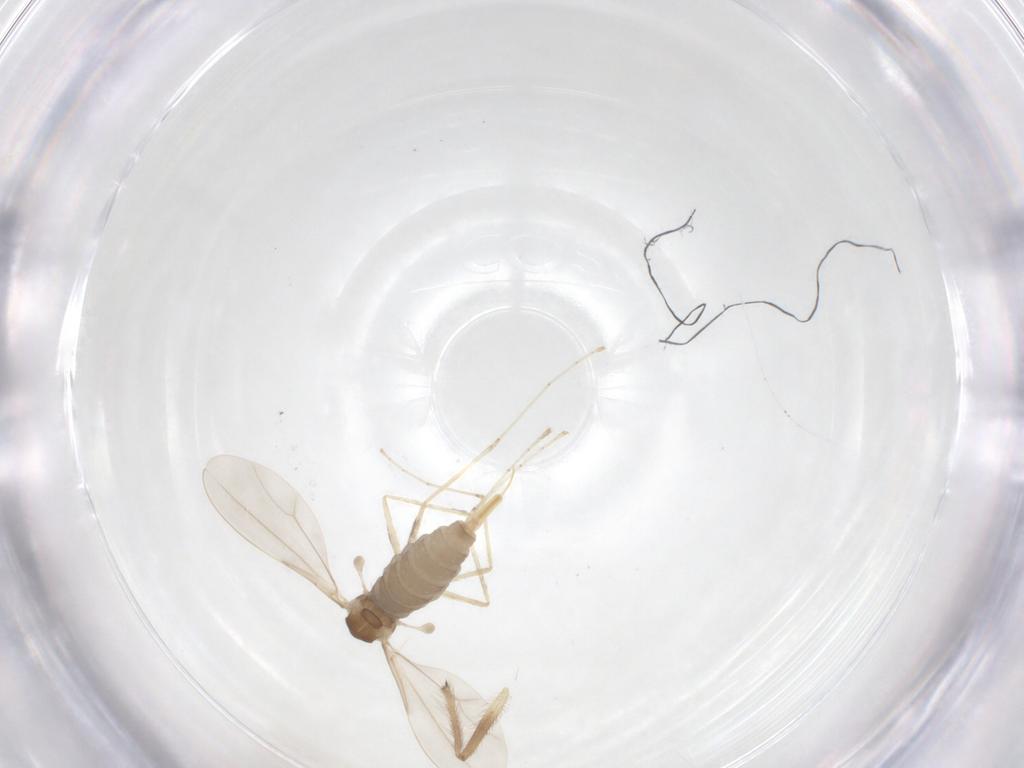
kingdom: Animalia
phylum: Arthropoda
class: Insecta
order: Diptera
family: Cecidomyiidae
